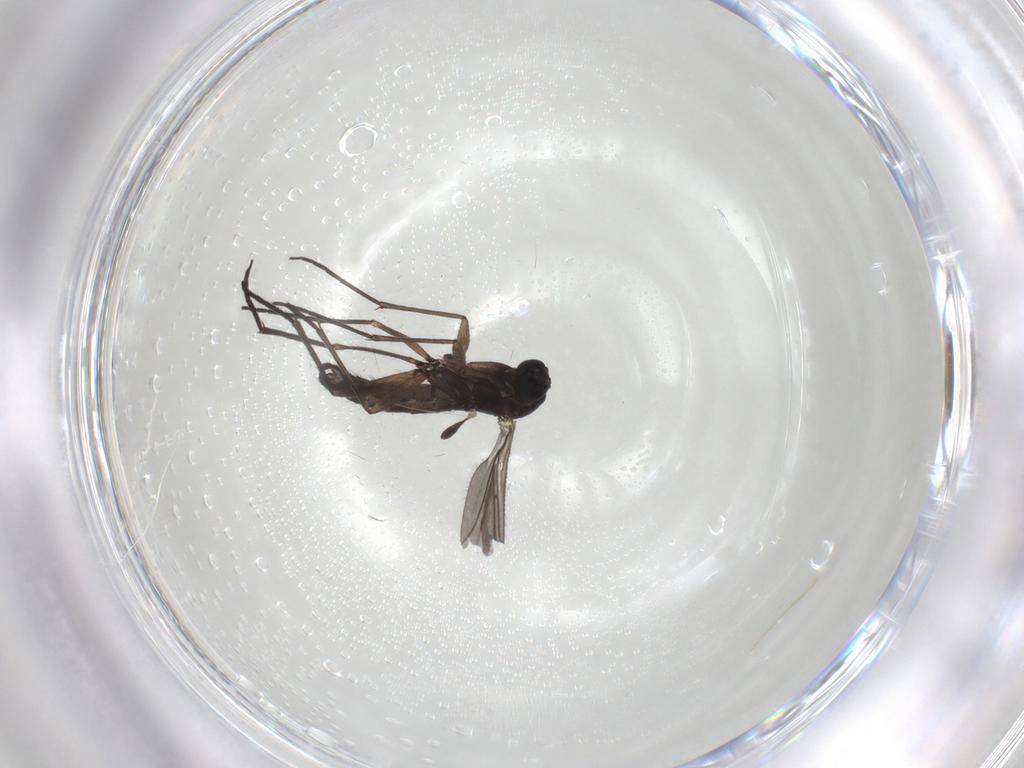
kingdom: Animalia
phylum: Arthropoda
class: Insecta
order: Diptera
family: Sciaridae
